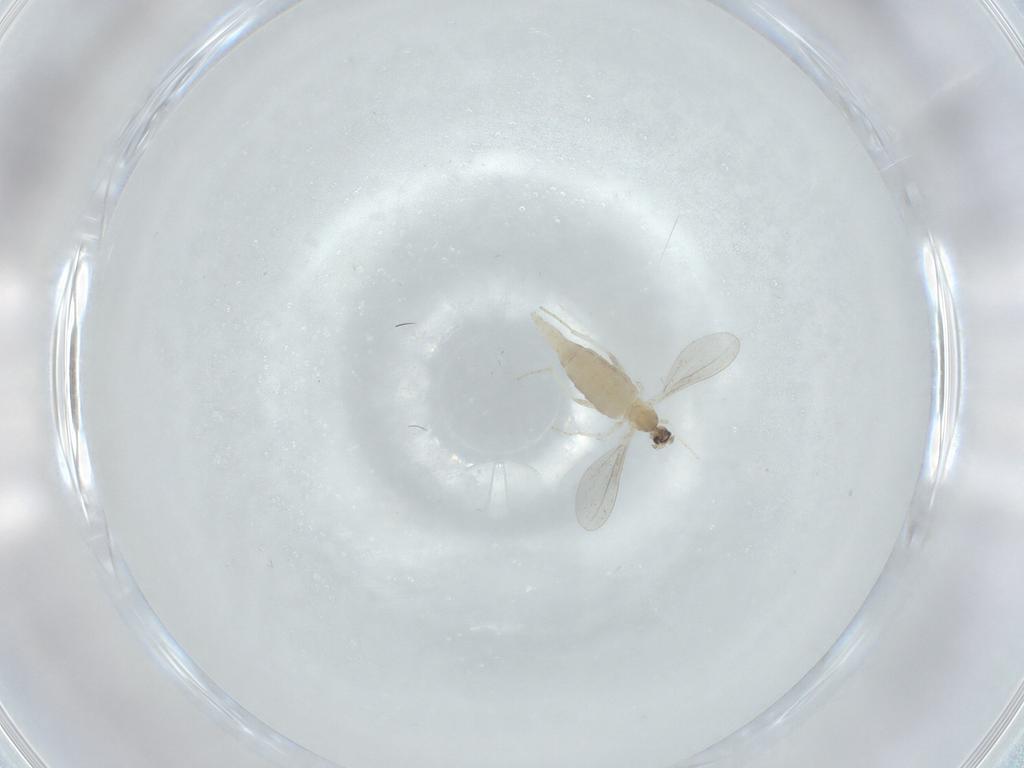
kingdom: Animalia
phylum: Arthropoda
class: Insecta
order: Diptera
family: Cecidomyiidae
